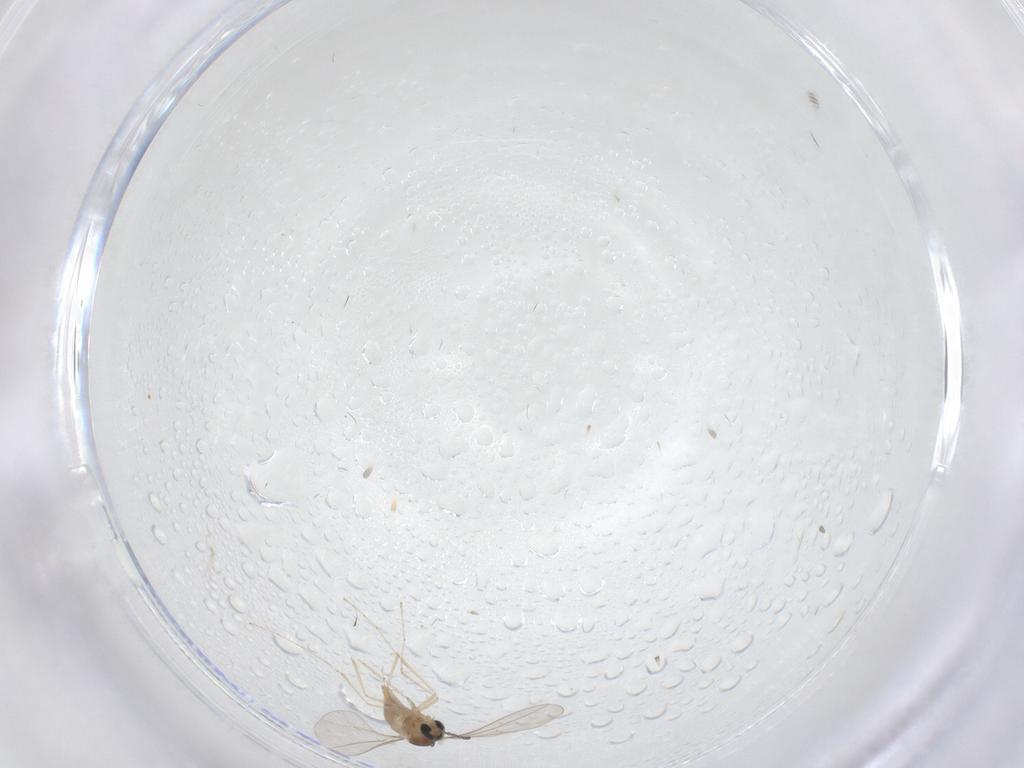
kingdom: Animalia
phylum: Arthropoda
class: Insecta
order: Diptera
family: Cecidomyiidae
